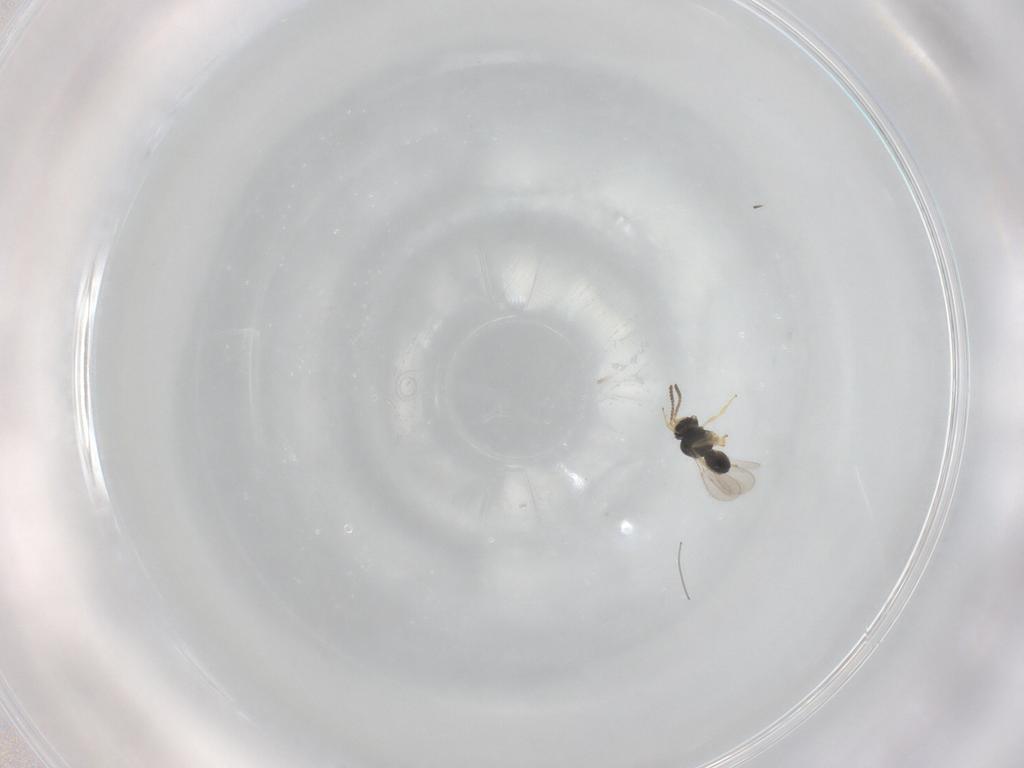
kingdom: Animalia
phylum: Arthropoda
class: Insecta
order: Hymenoptera
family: Scelionidae
